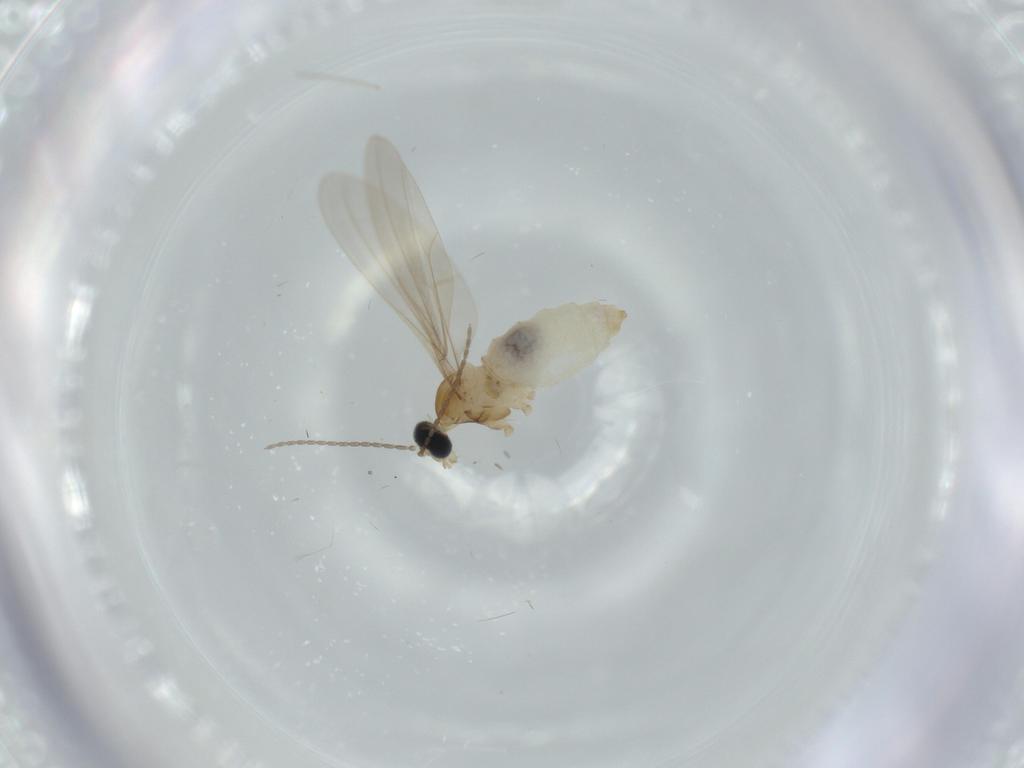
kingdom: Animalia
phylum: Arthropoda
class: Insecta
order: Diptera
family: Cecidomyiidae
